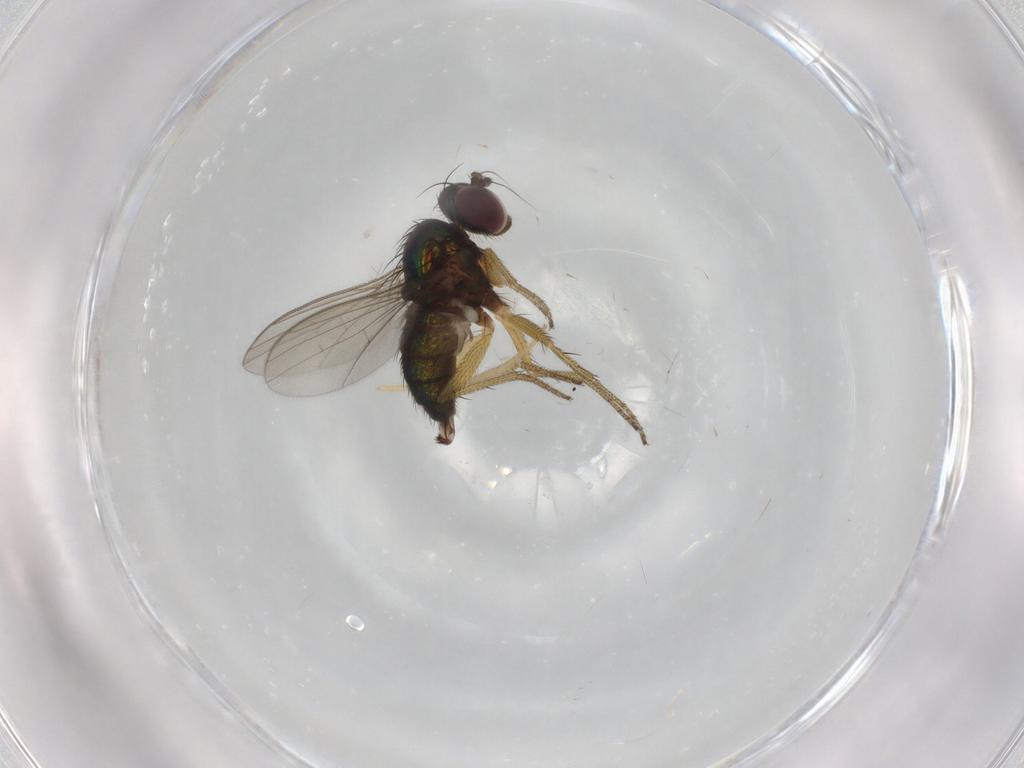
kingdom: Animalia
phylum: Arthropoda
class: Insecta
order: Diptera
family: Dolichopodidae
